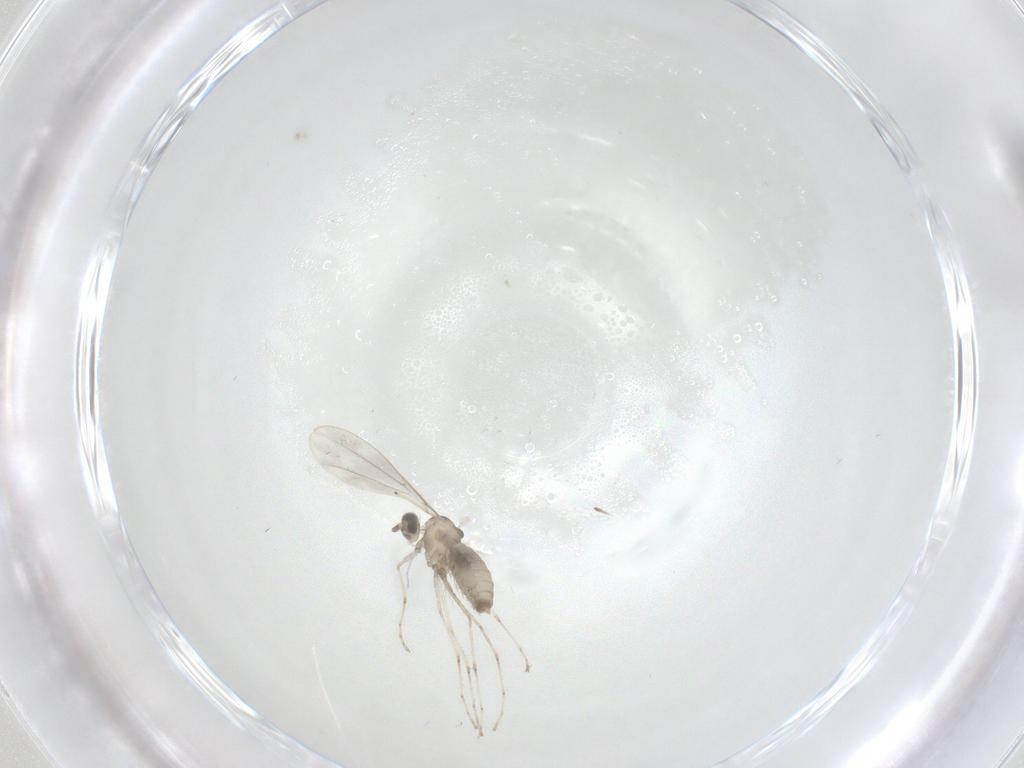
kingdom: Animalia
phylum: Arthropoda
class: Insecta
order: Diptera
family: Cecidomyiidae
